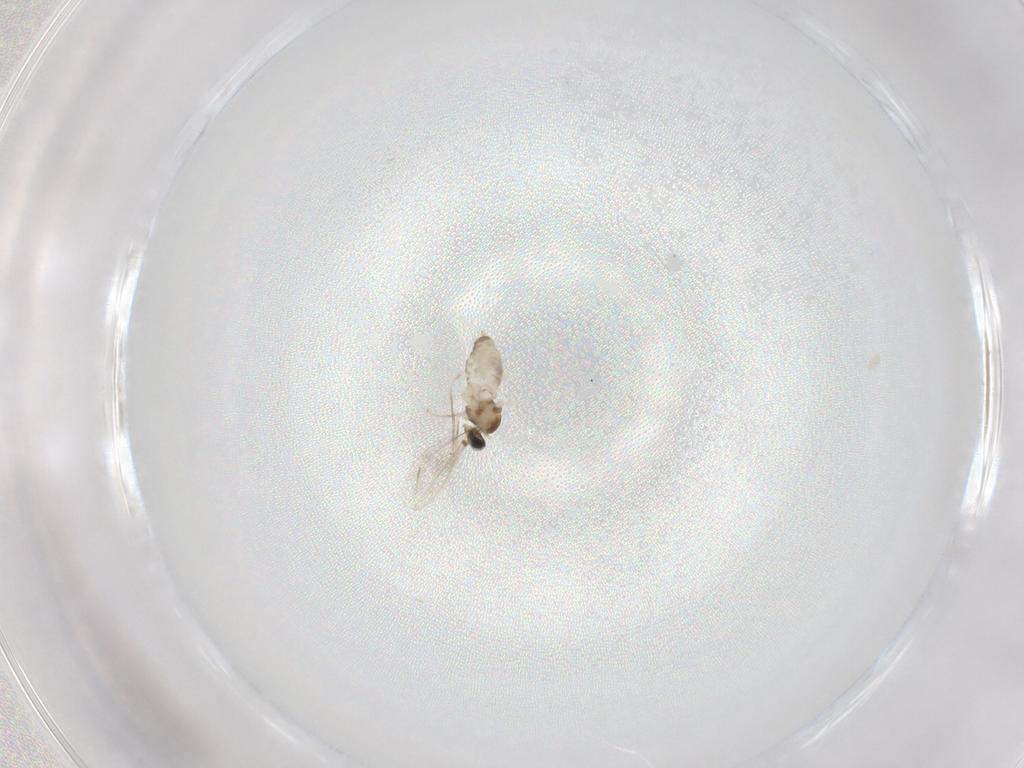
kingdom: Animalia
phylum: Arthropoda
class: Insecta
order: Diptera
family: Cecidomyiidae
